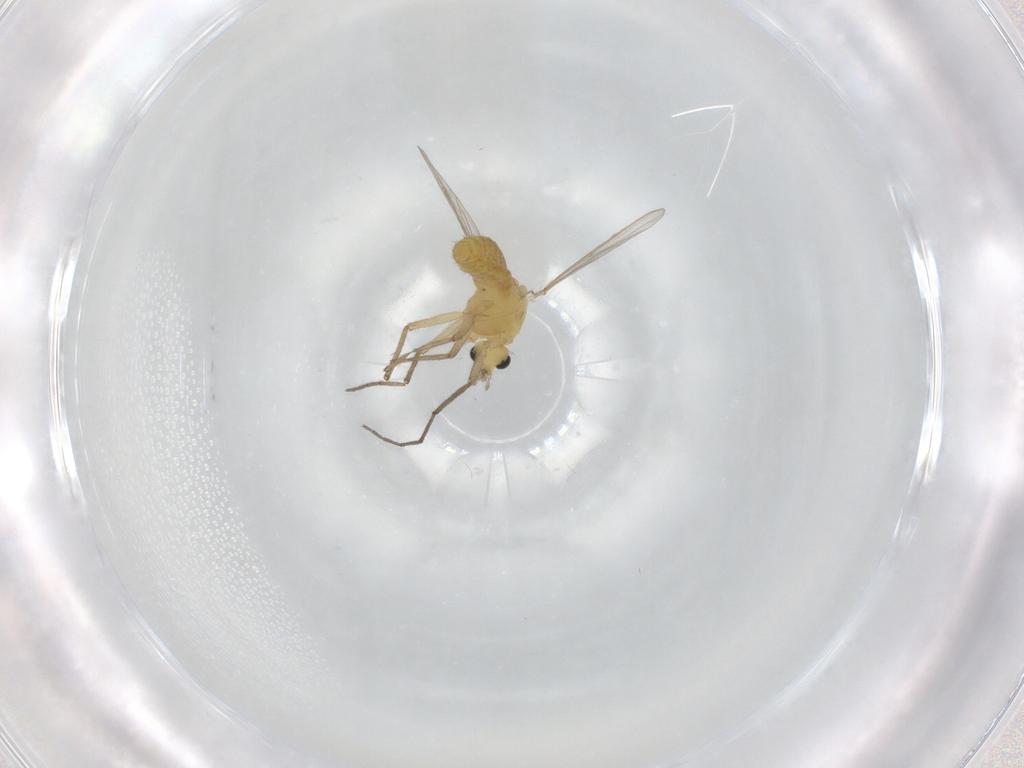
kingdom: Animalia
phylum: Arthropoda
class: Insecta
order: Diptera
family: Chironomidae
